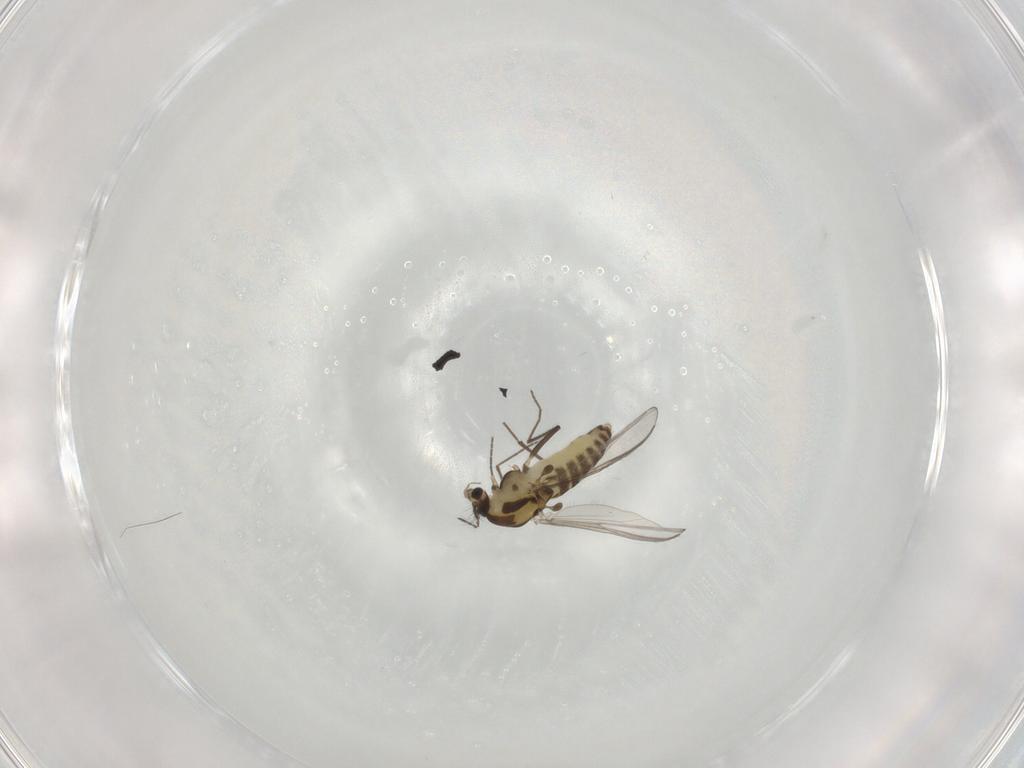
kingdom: Animalia
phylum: Arthropoda
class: Insecta
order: Diptera
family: Chironomidae
